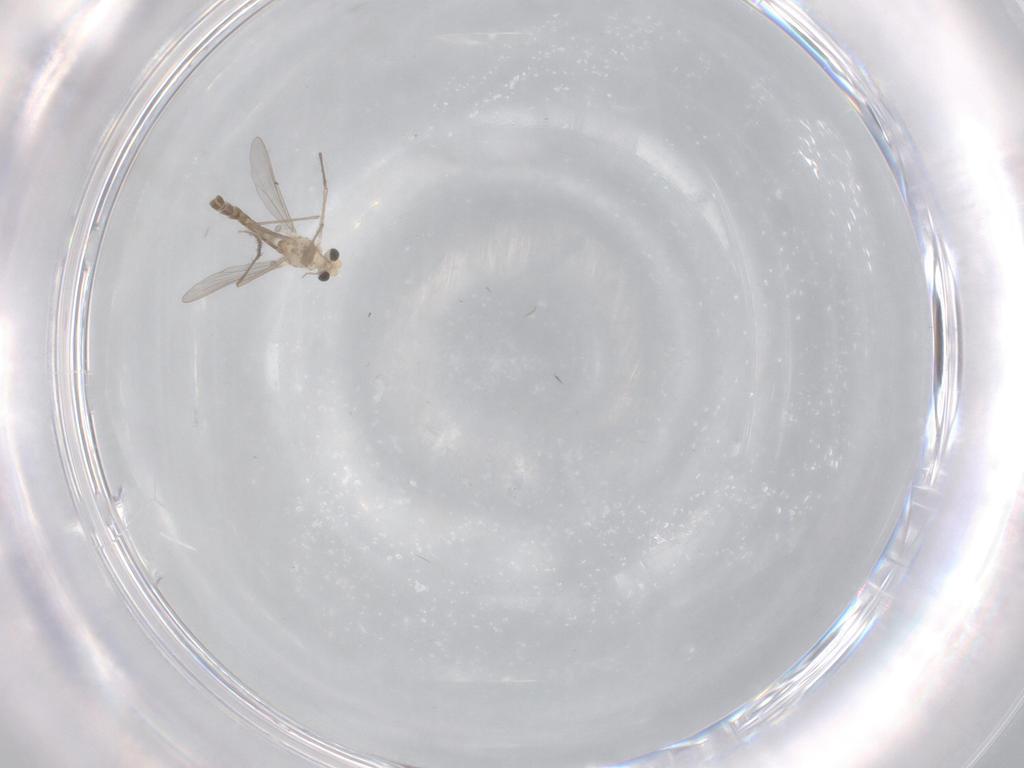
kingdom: Animalia
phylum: Arthropoda
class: Insecta
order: Diptera
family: Chironomidae
